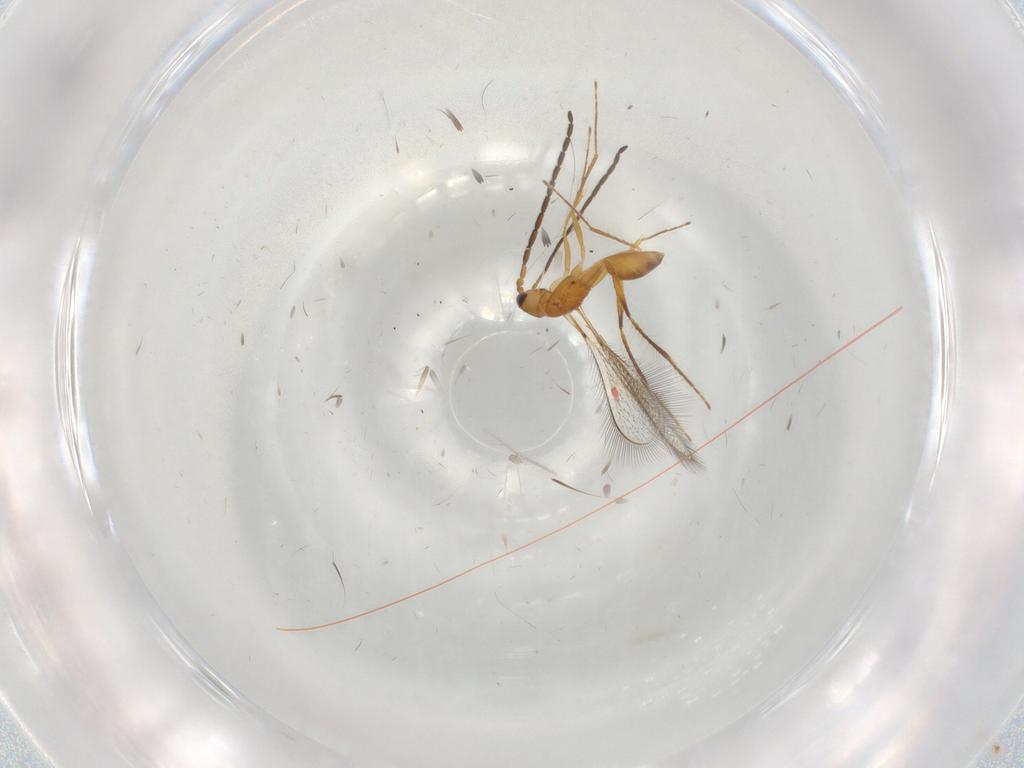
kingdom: Animalia
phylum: Arthropoda
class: Insecta
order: Hymenoptera
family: Mymaridae
